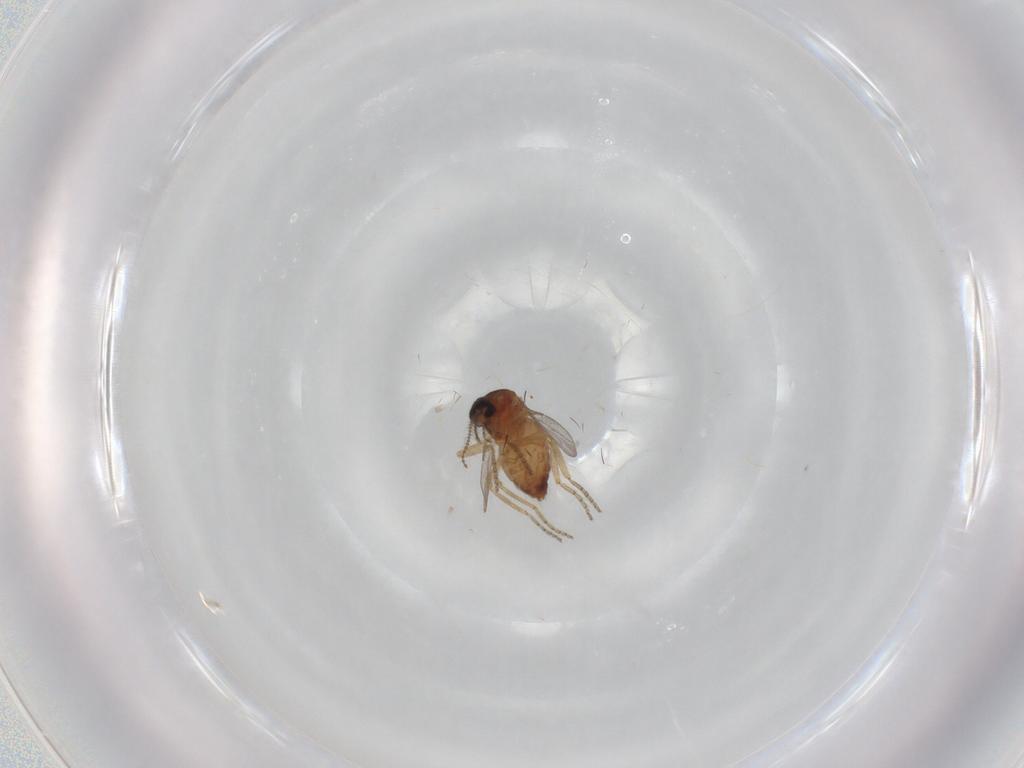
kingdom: Animalia
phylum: Arthropoda
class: Insecta
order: Diptera
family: Ceratopogonidae
